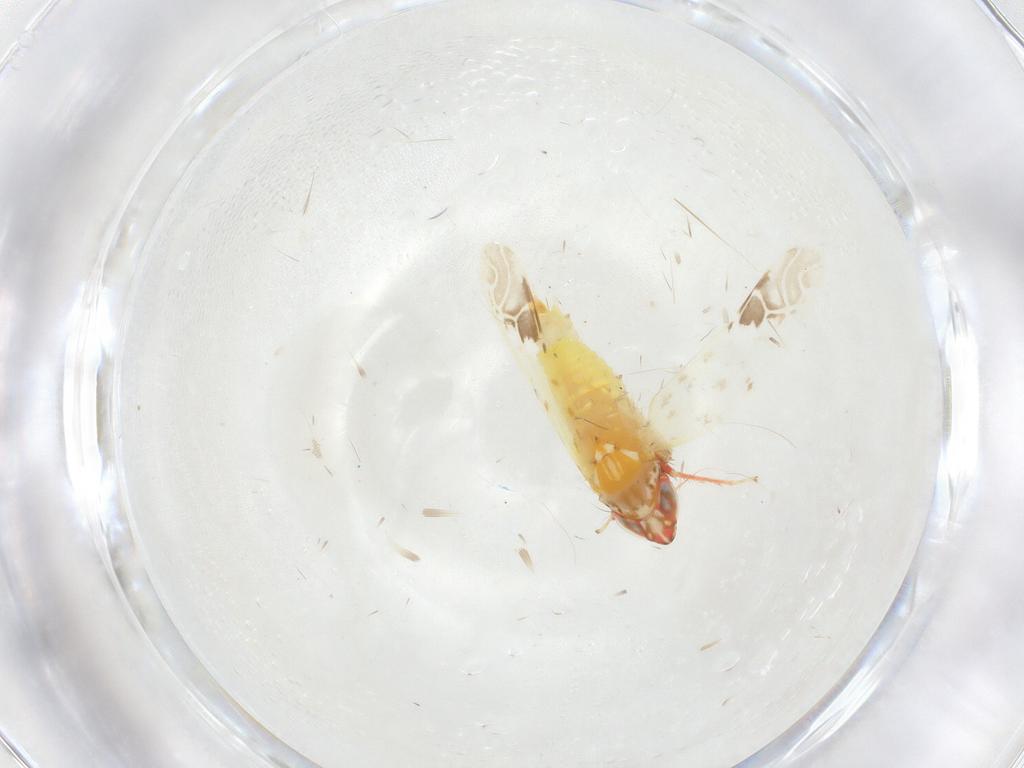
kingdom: Animalia
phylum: Arthropoda
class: Insecta
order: Hemiptera
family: Cicadellidae
